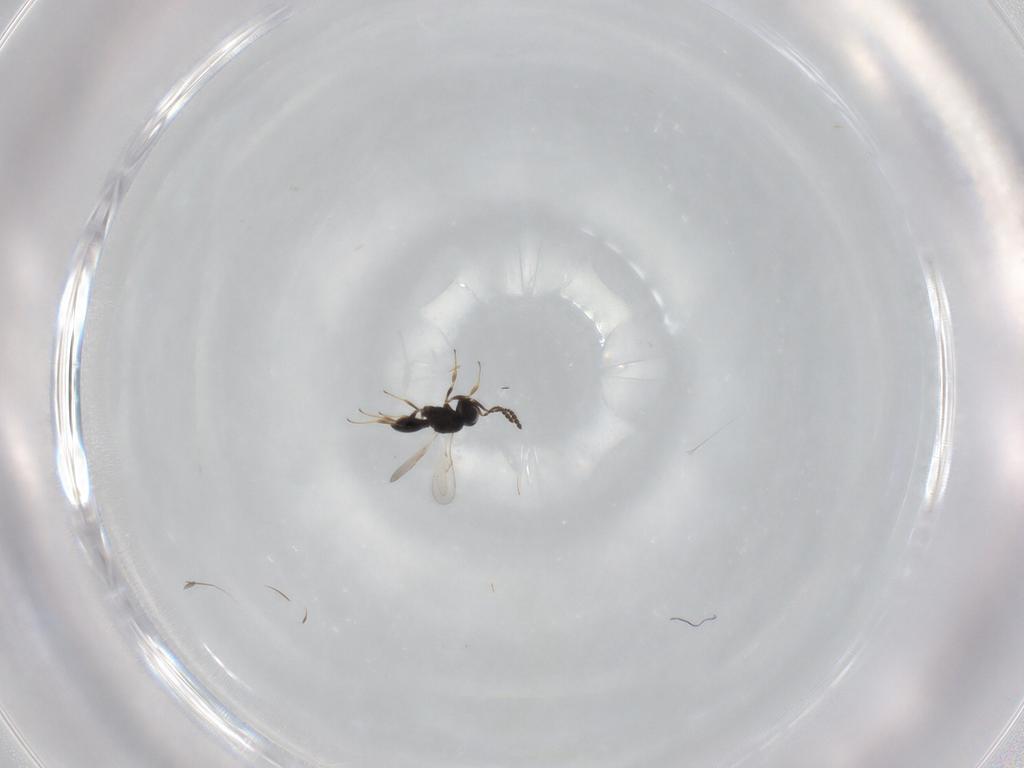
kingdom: Animalia
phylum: Arthropoda
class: Insecta
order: Hymenoptera
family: Scelionidae
